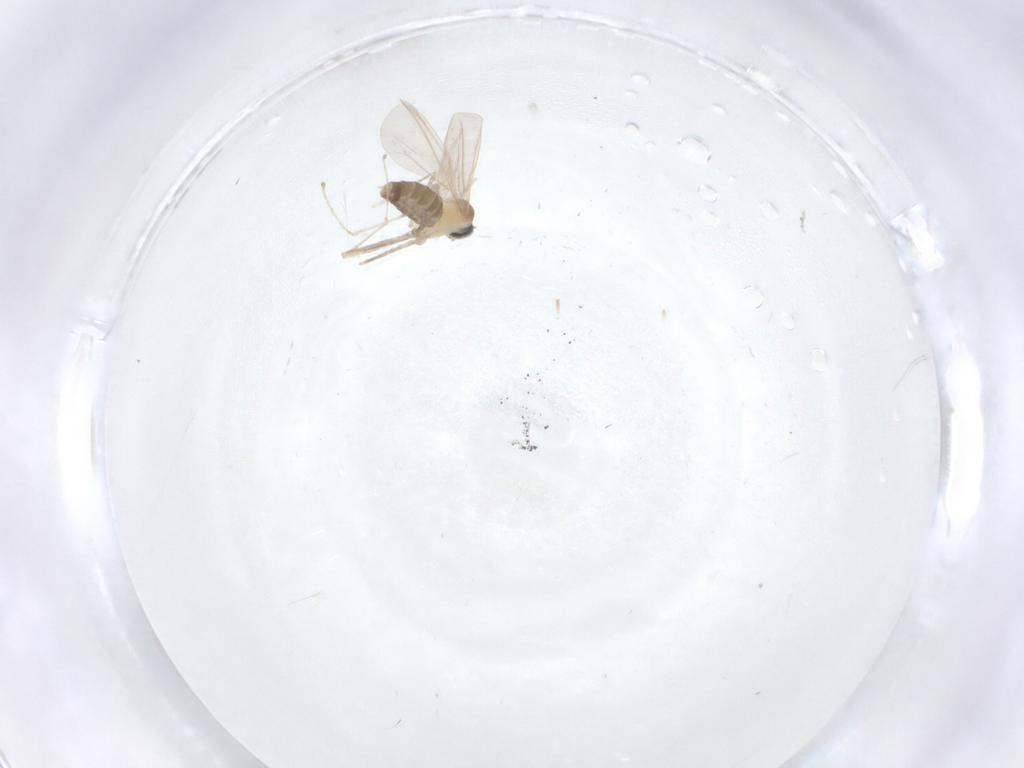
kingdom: Animalia
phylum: Arthropoda
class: Insecta
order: Diptera
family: Cecidomyiidae
